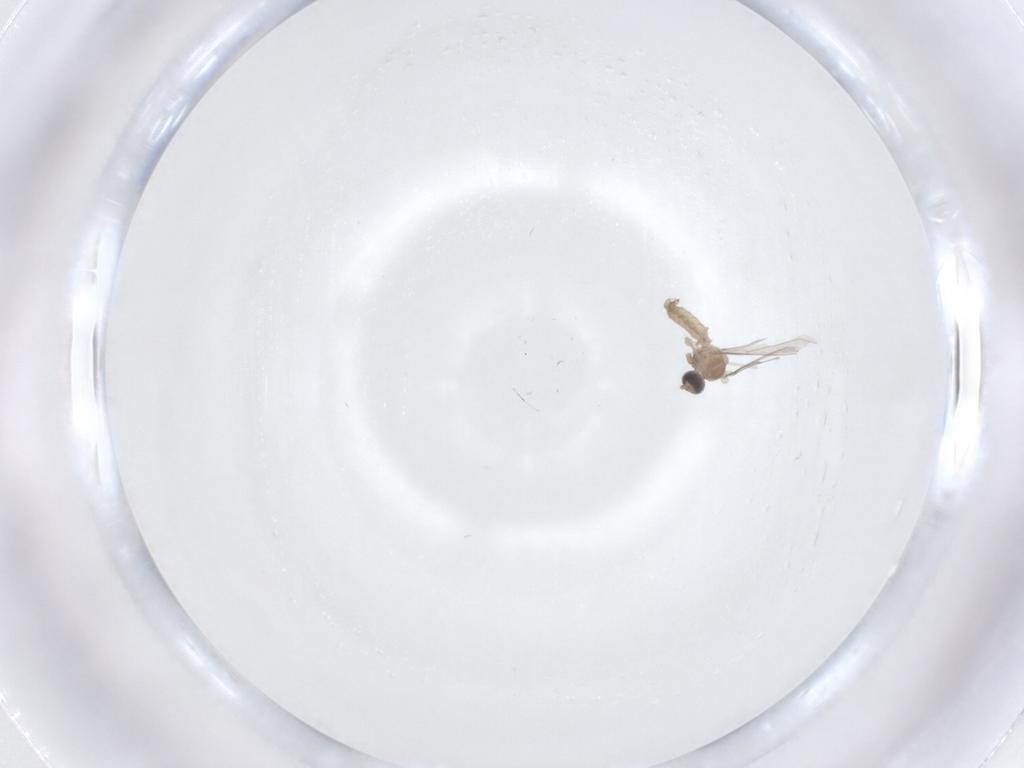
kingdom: Animalia
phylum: Arthropoda
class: Insecta
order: Diptera
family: Cecidomyiidae
